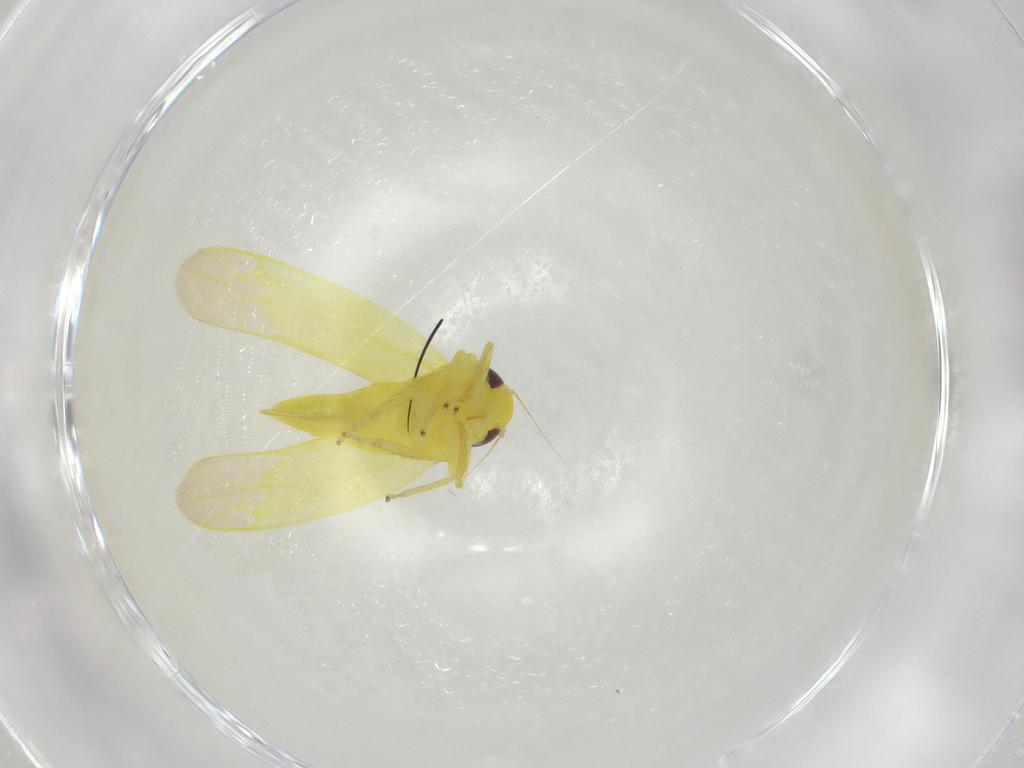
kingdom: Animalia
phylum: Arthropoda
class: Insecta
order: Hemiptera
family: Cicadellidae
